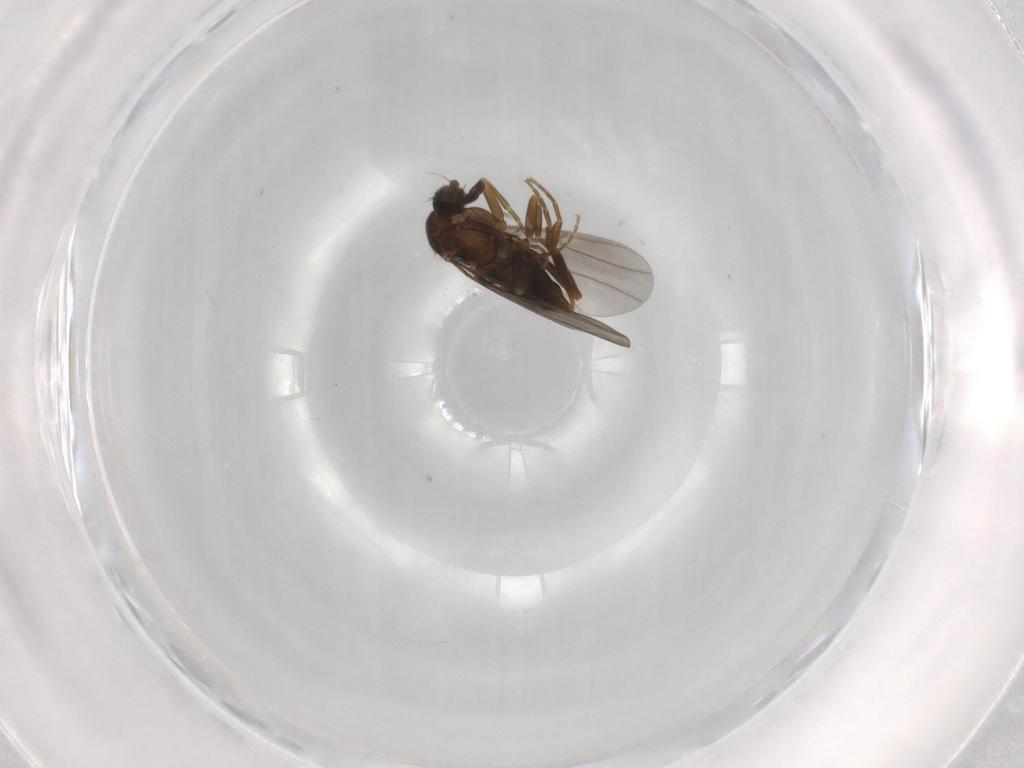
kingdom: Animalia
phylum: Arthropoda
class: Insecta
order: Diptera
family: Phoridae
